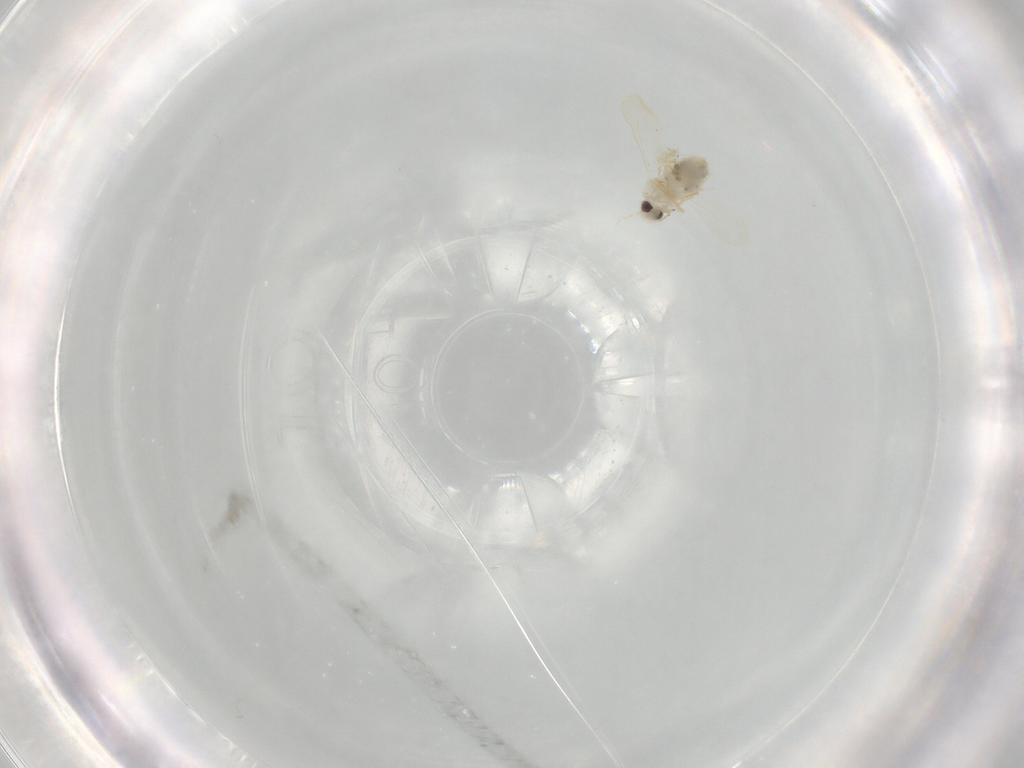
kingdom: Animalia
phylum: Arthropoda
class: Insecta
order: Hemiptera
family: Aleyrodidae
